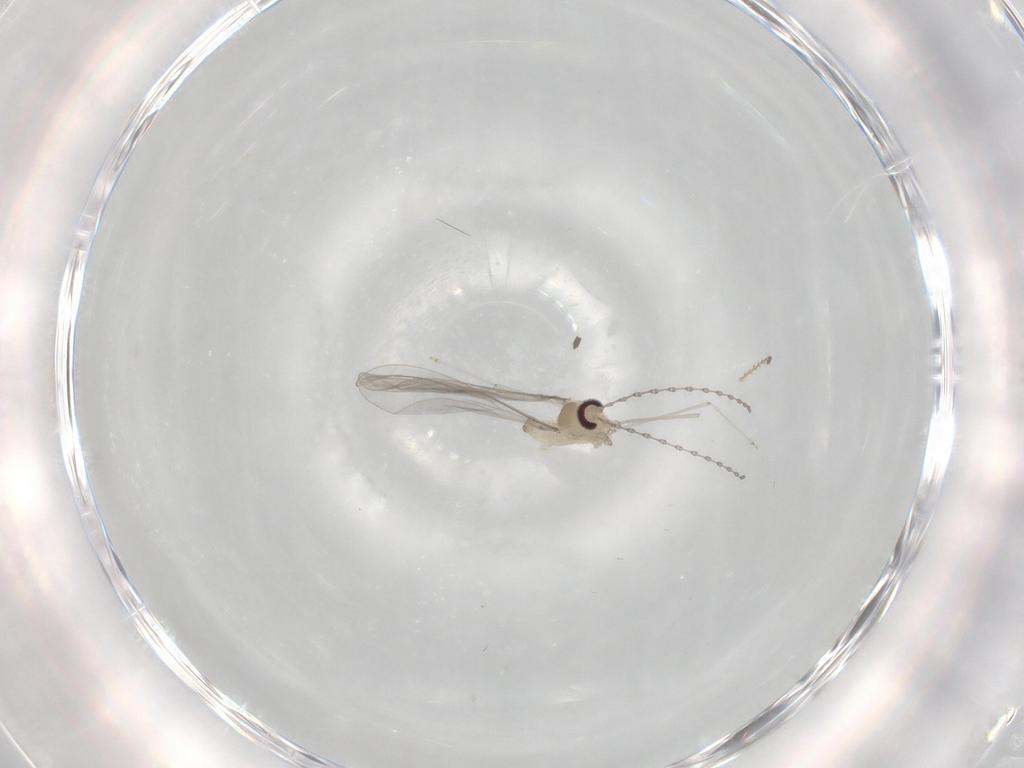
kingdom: Animalia
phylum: Arthropoda
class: Insecta
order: Diptera
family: Cecidomyiidae
